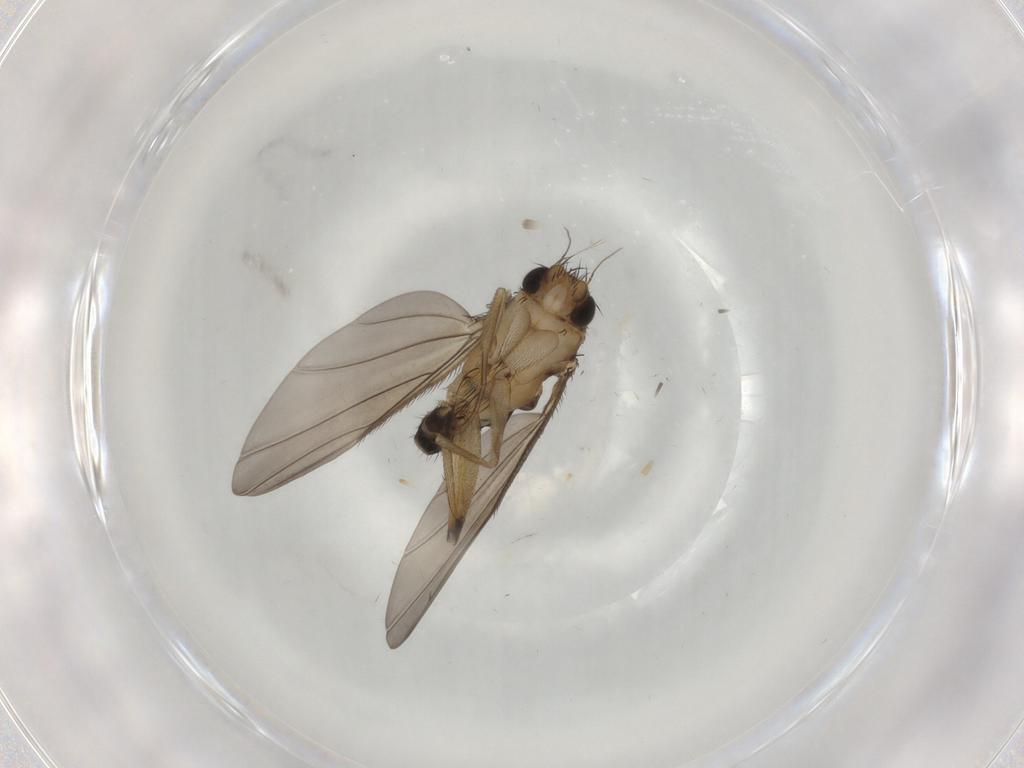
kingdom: Animalia
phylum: Arthropoda
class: Insecta
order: Diptera
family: Phoridae
